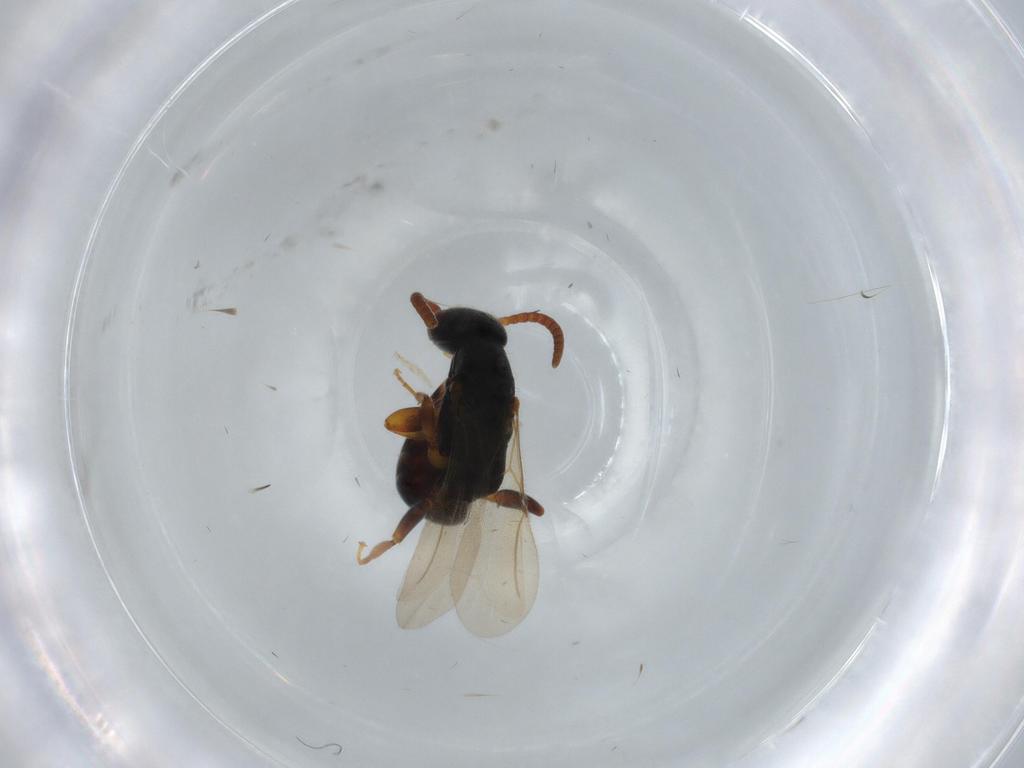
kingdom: Animalia
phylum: Arthropoda
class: Insecta
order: Hymenoptera
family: Bethylidae
